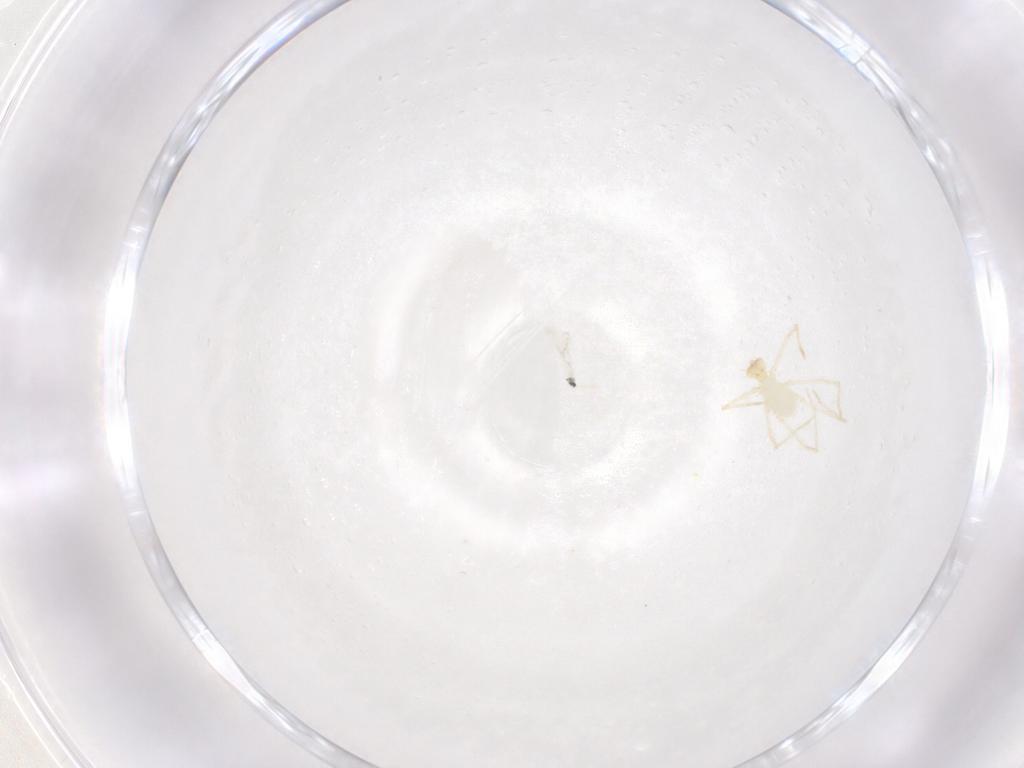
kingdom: Animalia
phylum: Arthropoda
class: Arachnida
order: Trombidiformes
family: Erythraeidae
